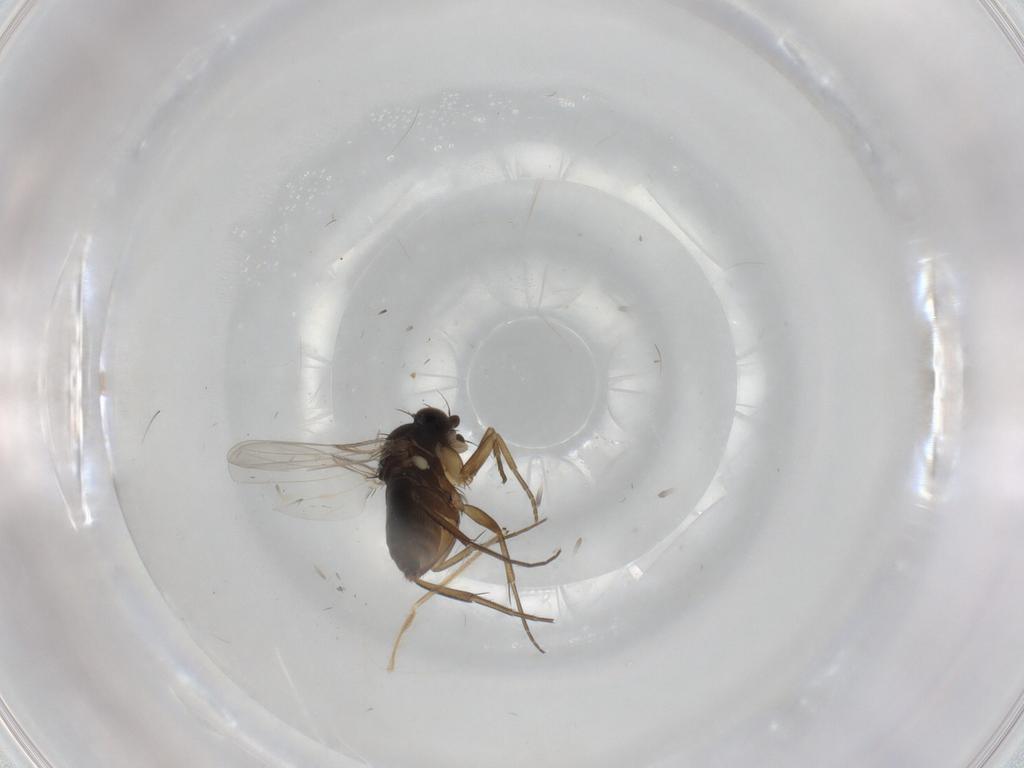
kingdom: Animalia
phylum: Arthropoda
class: Insecta
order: Diptera
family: Phoridae
